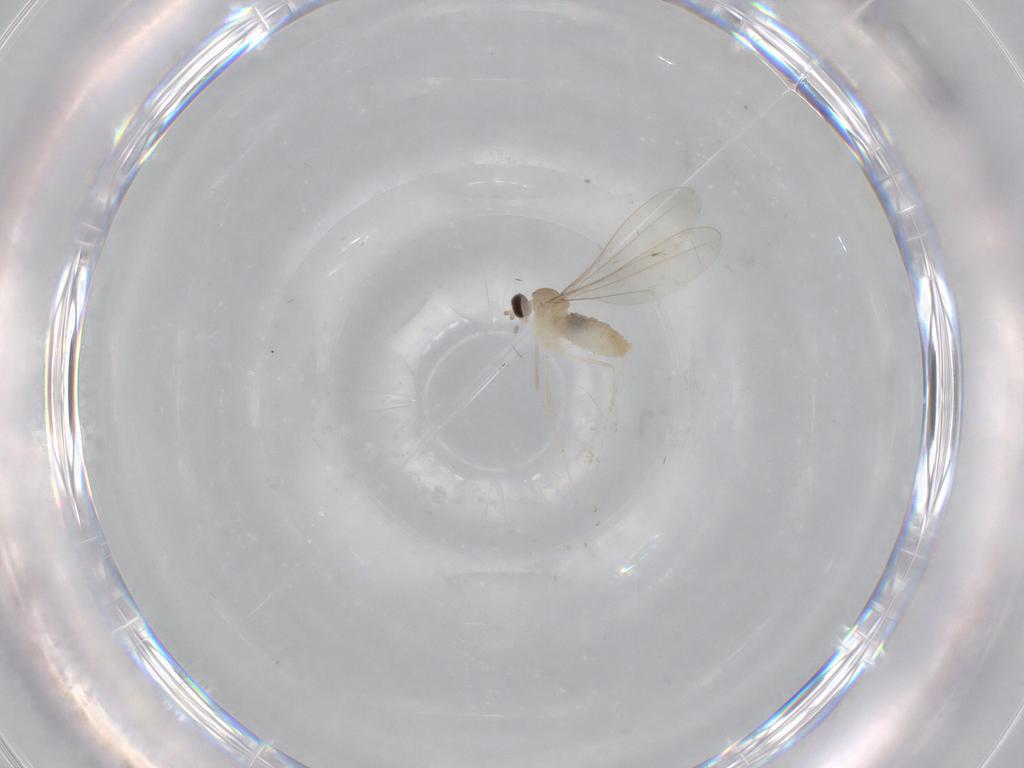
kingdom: Animalia
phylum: Arthropoda
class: Insecta
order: Diptera
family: Cecidomyiidae
